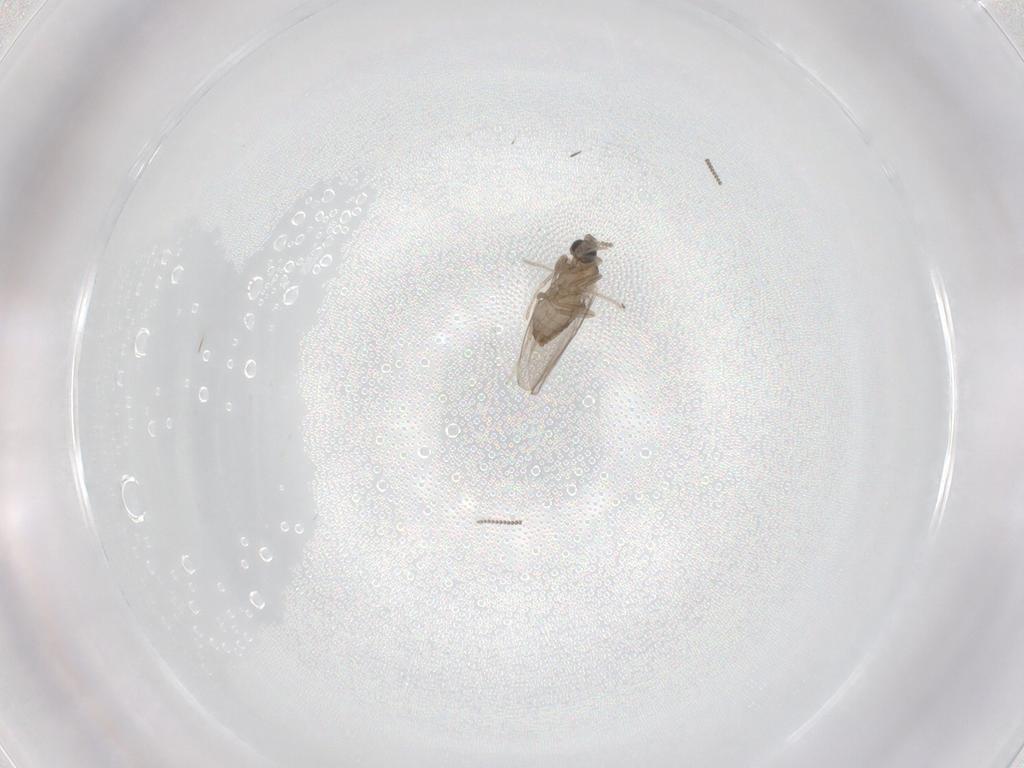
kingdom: Animalia
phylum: Arthropoda
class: Insecta
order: Diptera
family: Cecidomyiidae
